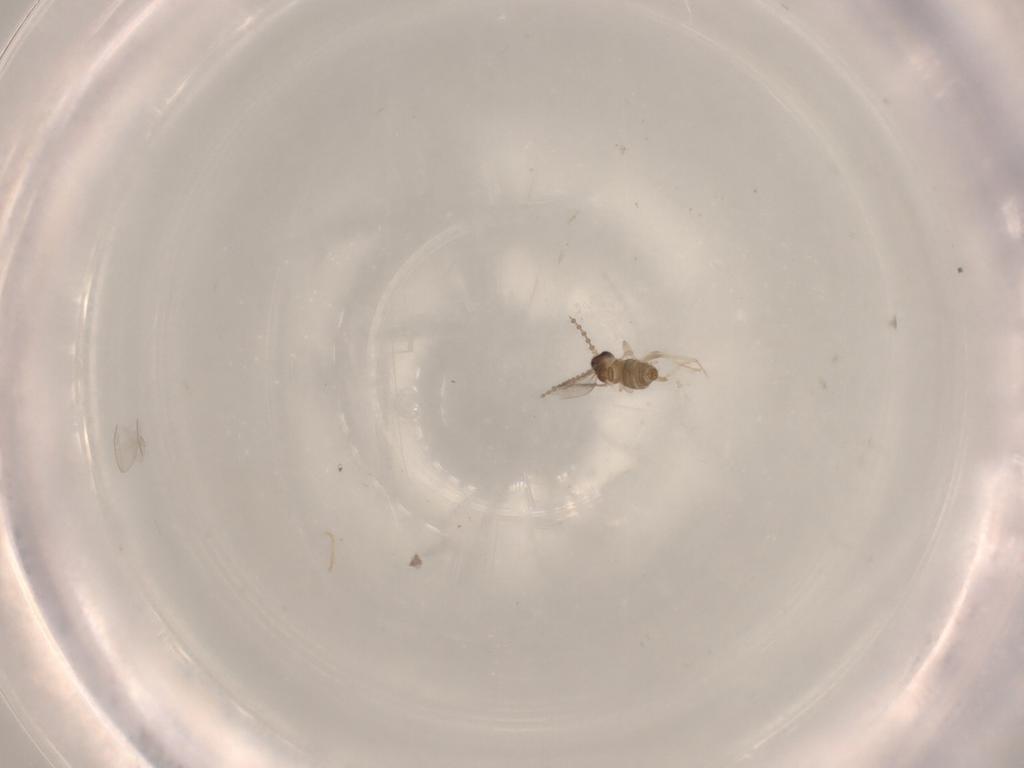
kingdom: Animalia
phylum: Arthropoda
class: Insecta
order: Diptera
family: Cecidomyiidae
